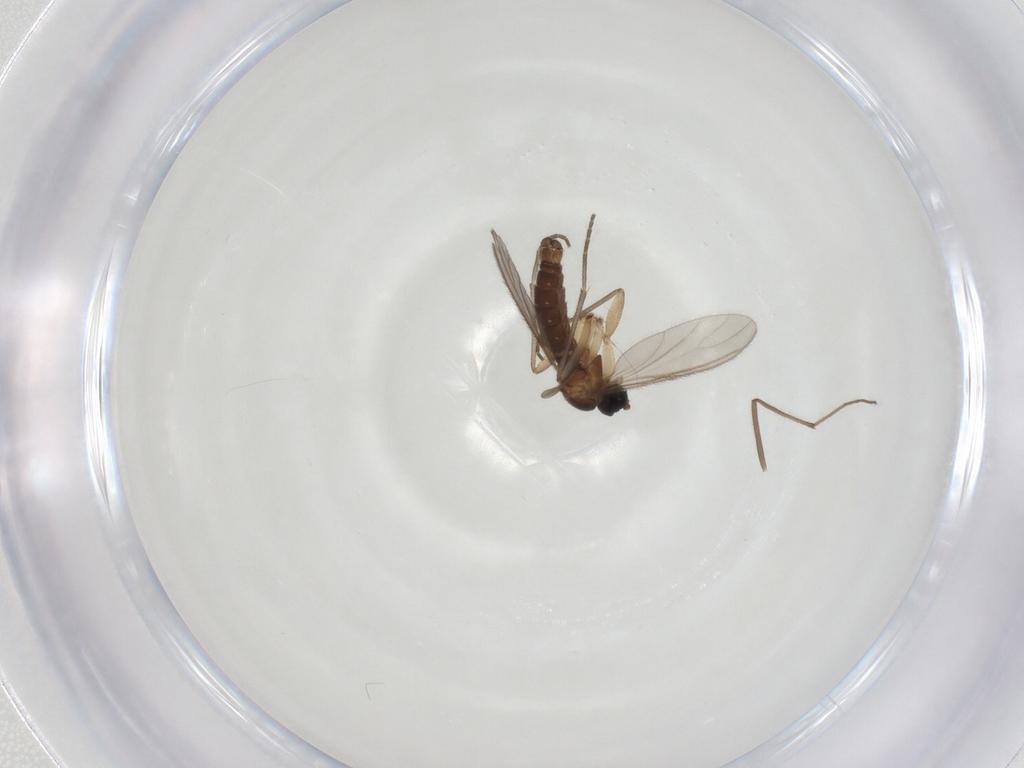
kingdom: Animalia
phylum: Arthropoda
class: Insecta
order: Diptera
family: Sciaridae
